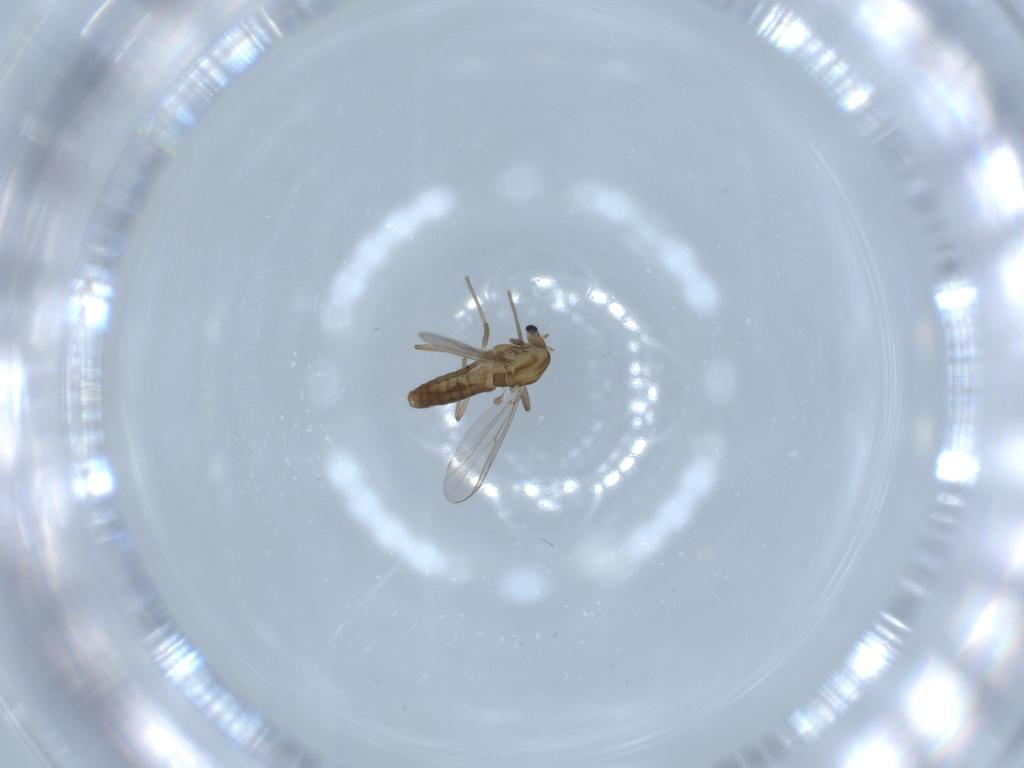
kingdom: Animalia
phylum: Arthropoda
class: Insecta
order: Diptera
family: Chironomidae
